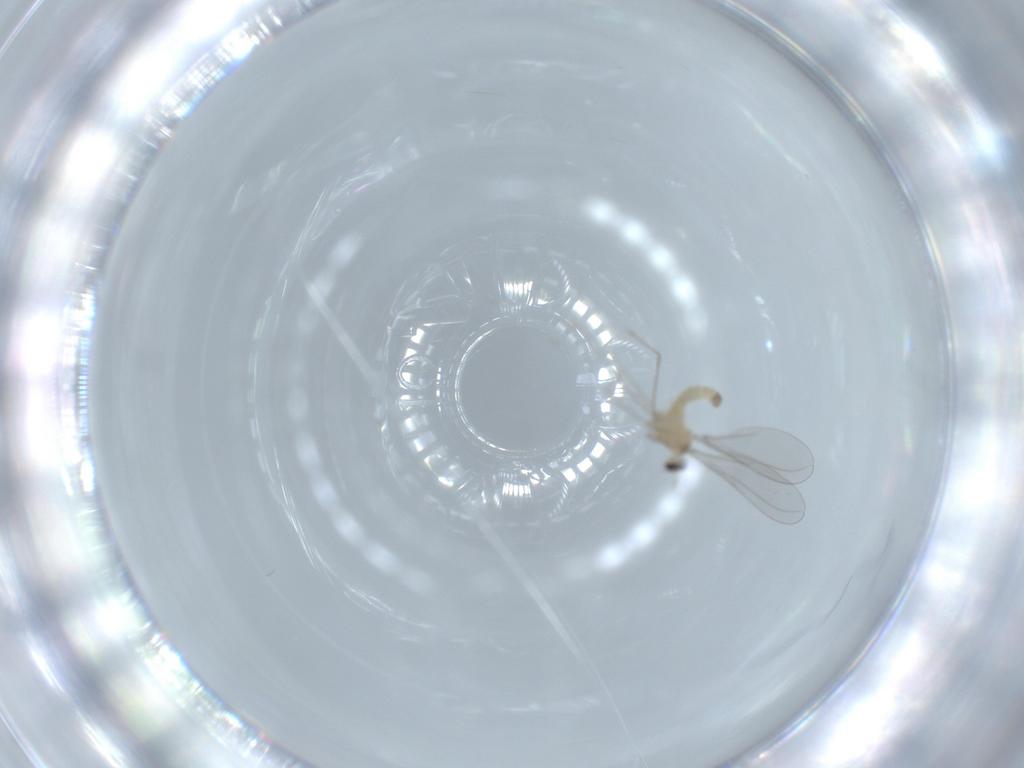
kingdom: Animalia
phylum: Arthropoda
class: Insecta
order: Diptera
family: Cecidomyiidae
